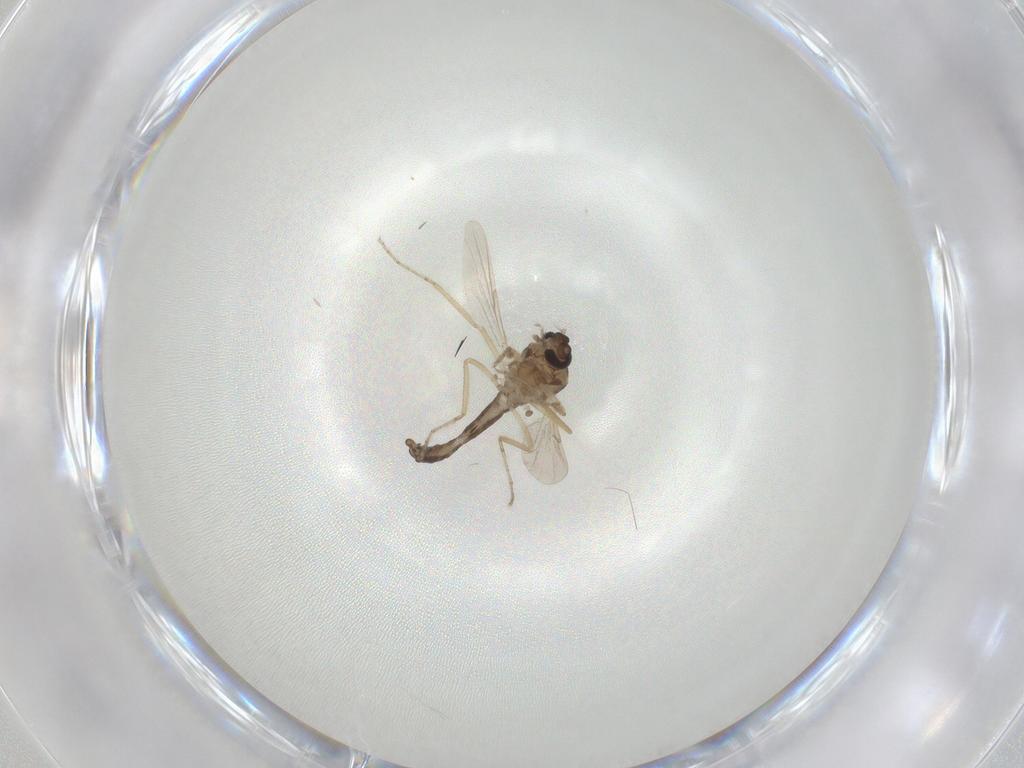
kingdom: Animalia
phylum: Arthropoda
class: Insecta
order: Diptera
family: Ceratopogonidae
